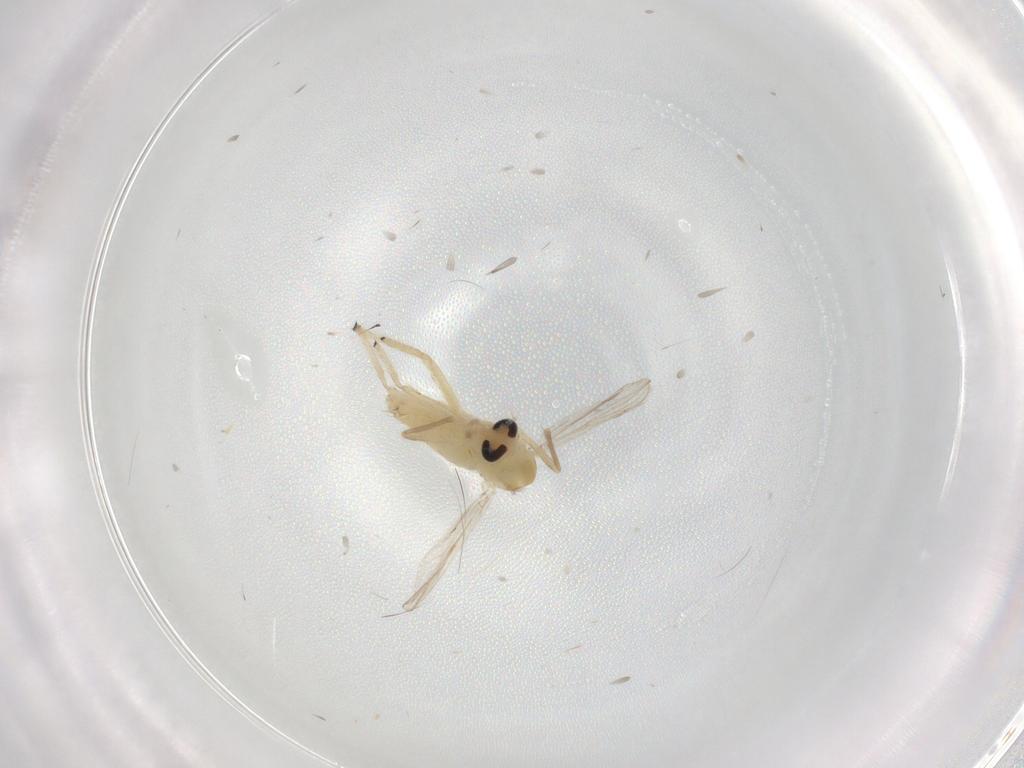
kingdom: Animalia
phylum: Arthropoda
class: Insecta
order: Diptera
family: Chironomidae
